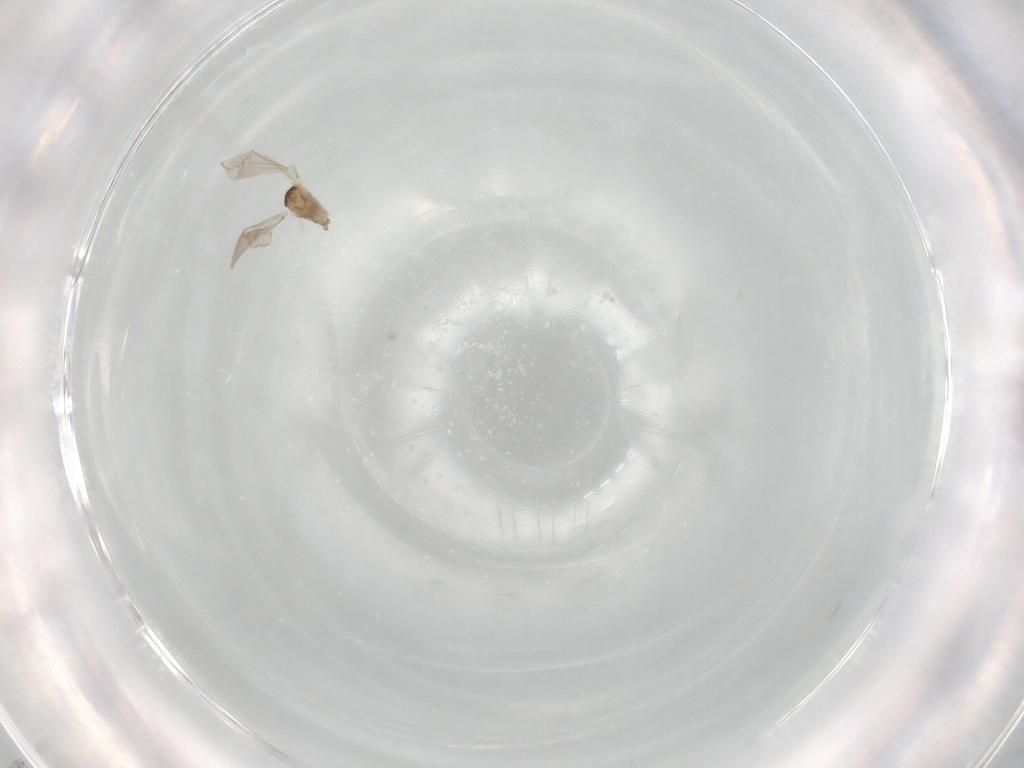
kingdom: Animalia
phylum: Arthropoda
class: Insecta
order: Diptera
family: Cecidomyiidae
